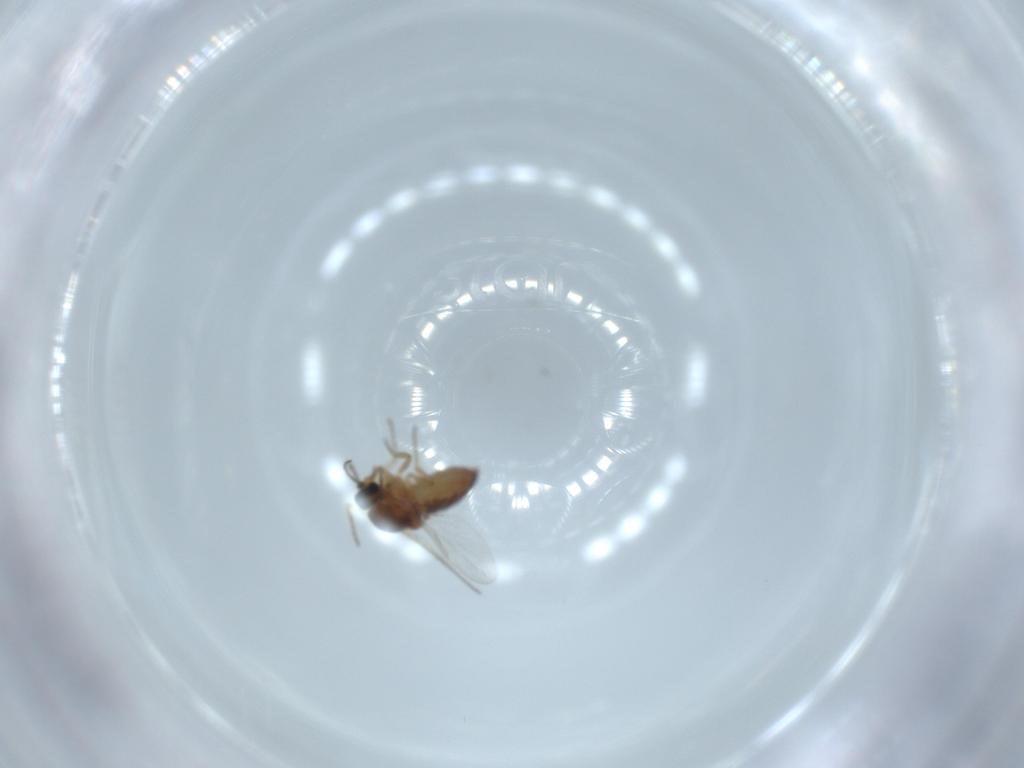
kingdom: Animalia
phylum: Arthropoda
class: Insecta
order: Diptera
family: Ceratopogonidae
